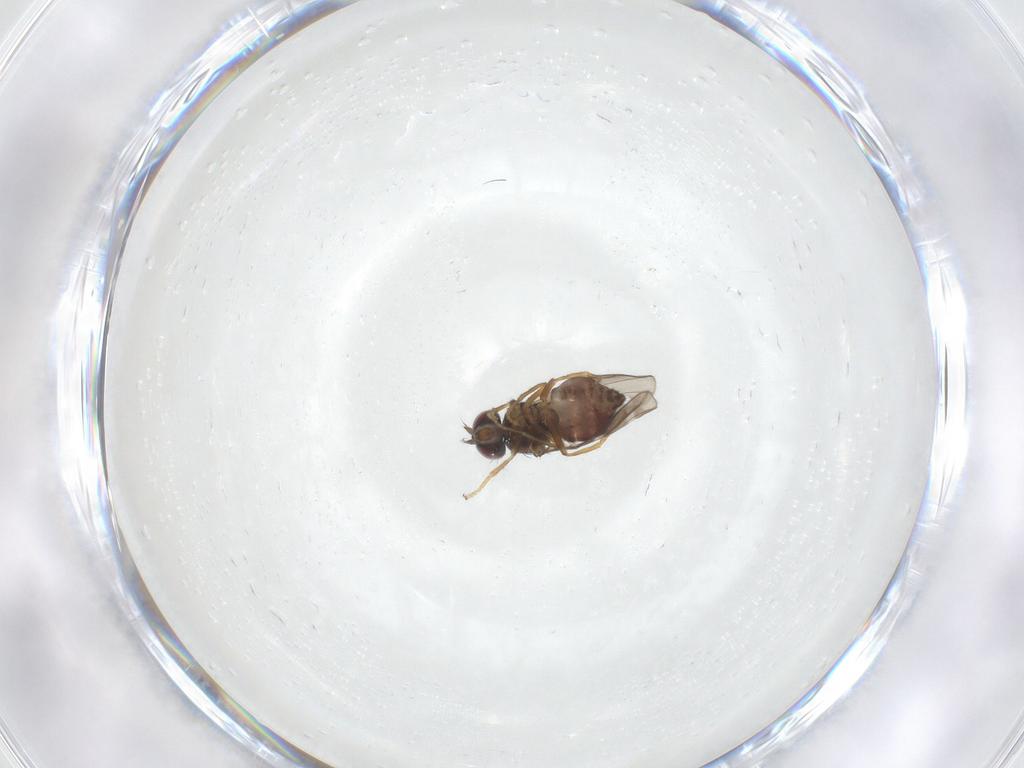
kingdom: Animalia
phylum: Arthropoda
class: Insecta
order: Diptera
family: Ephydridae
